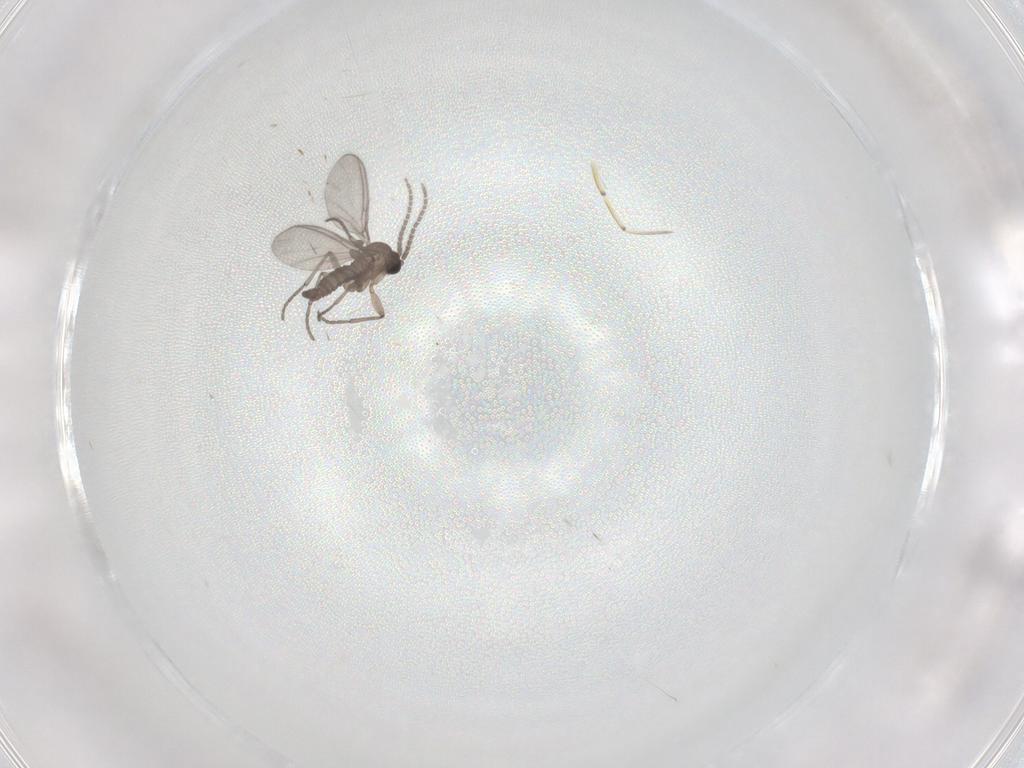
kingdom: Animalia
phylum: Arthropoda
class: Insecta
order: Diptera
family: Sciaridae
